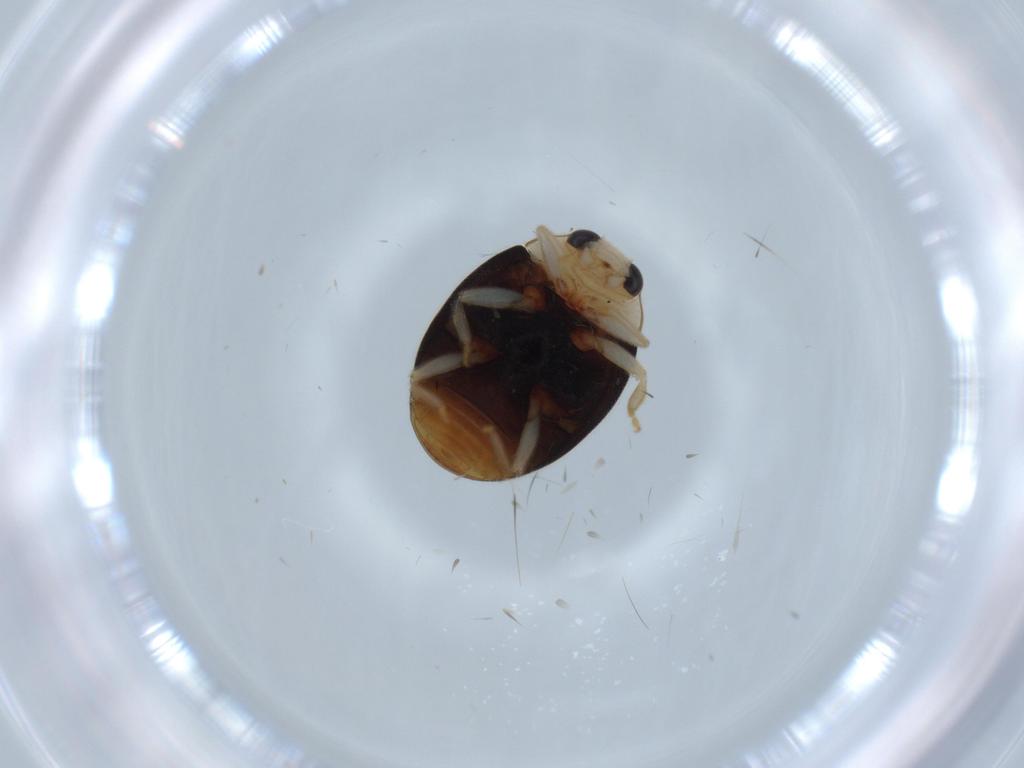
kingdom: Animalia
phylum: Arthropoda
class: Insecta
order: Coleoptera
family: Coccinellidae
